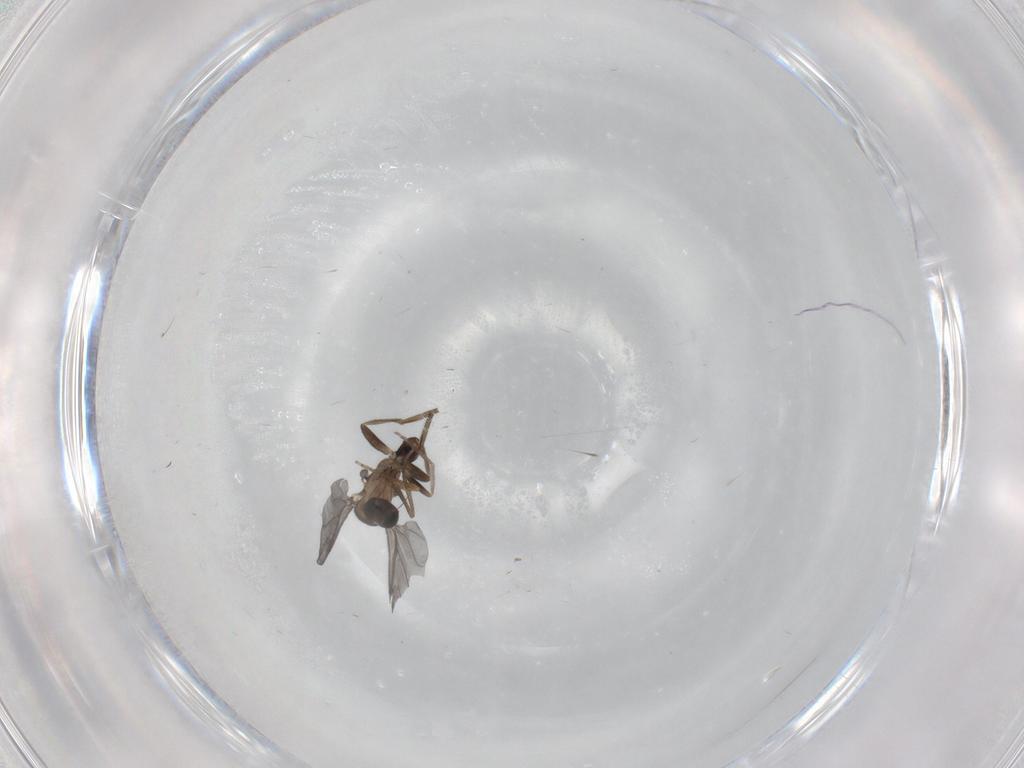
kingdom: Animalia
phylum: Arthropoda
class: Insecta
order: Diptera
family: Phoridae
